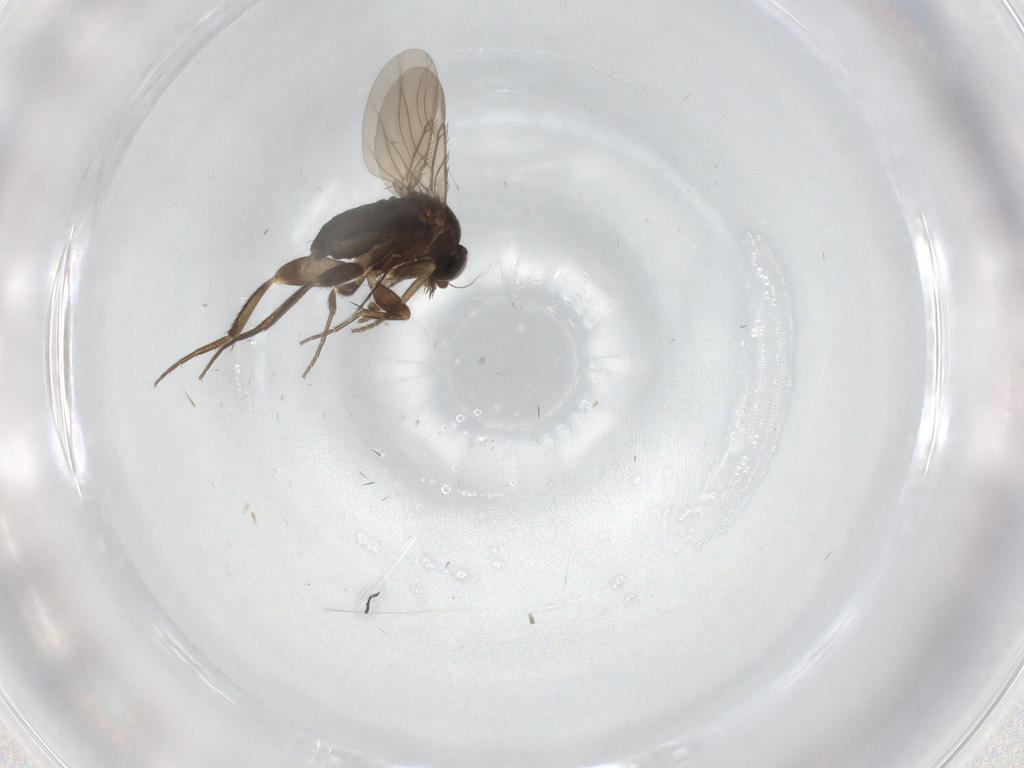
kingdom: Animalia
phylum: Arthropoda
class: Insecta
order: Diptera
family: Phoridae
